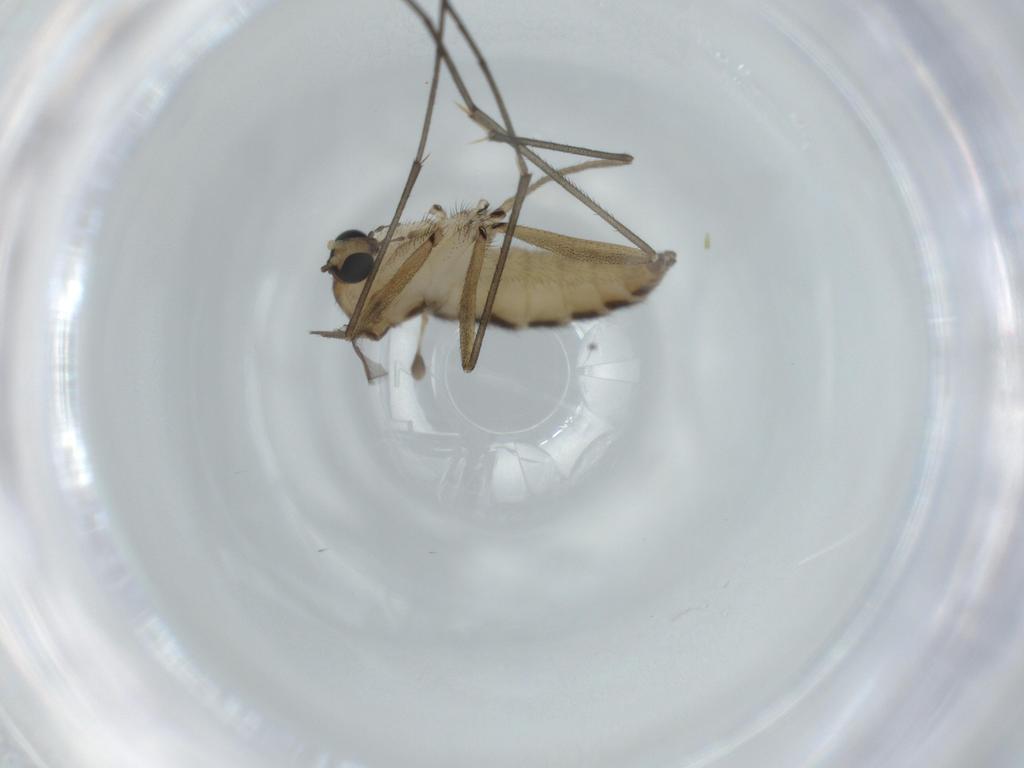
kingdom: Animalia
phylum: Arthropoda
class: Insecta
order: Diptera
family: Sciaridae
